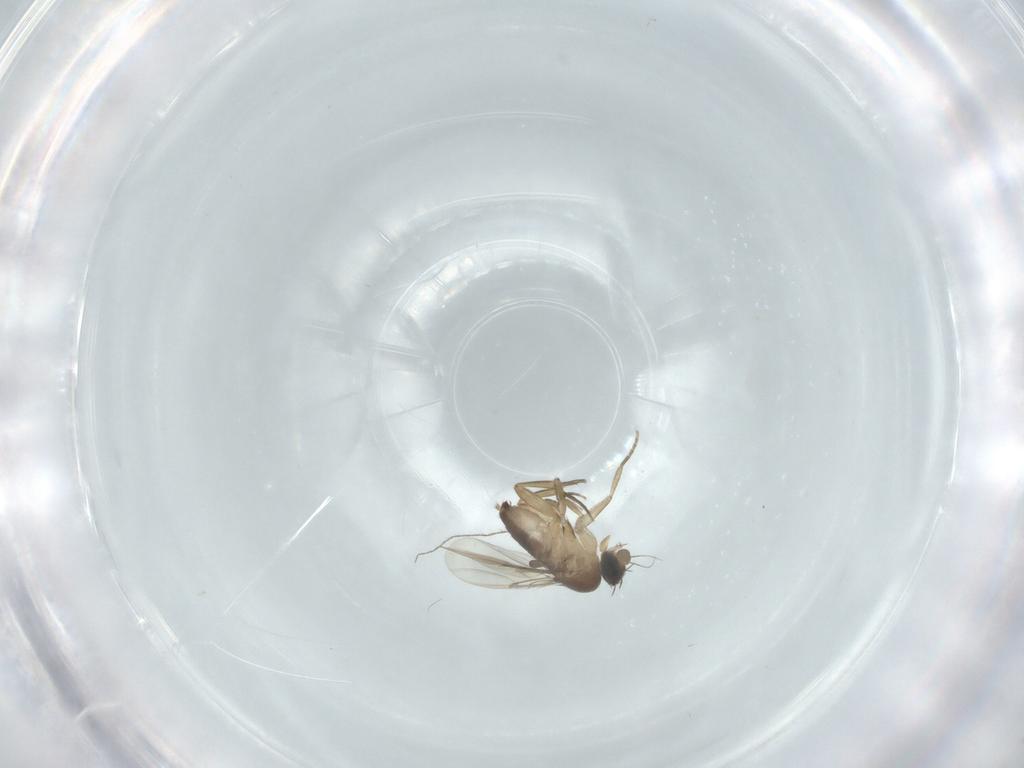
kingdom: Animalia
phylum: Arthropoda
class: Insecta
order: Diptera
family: Phoridae
